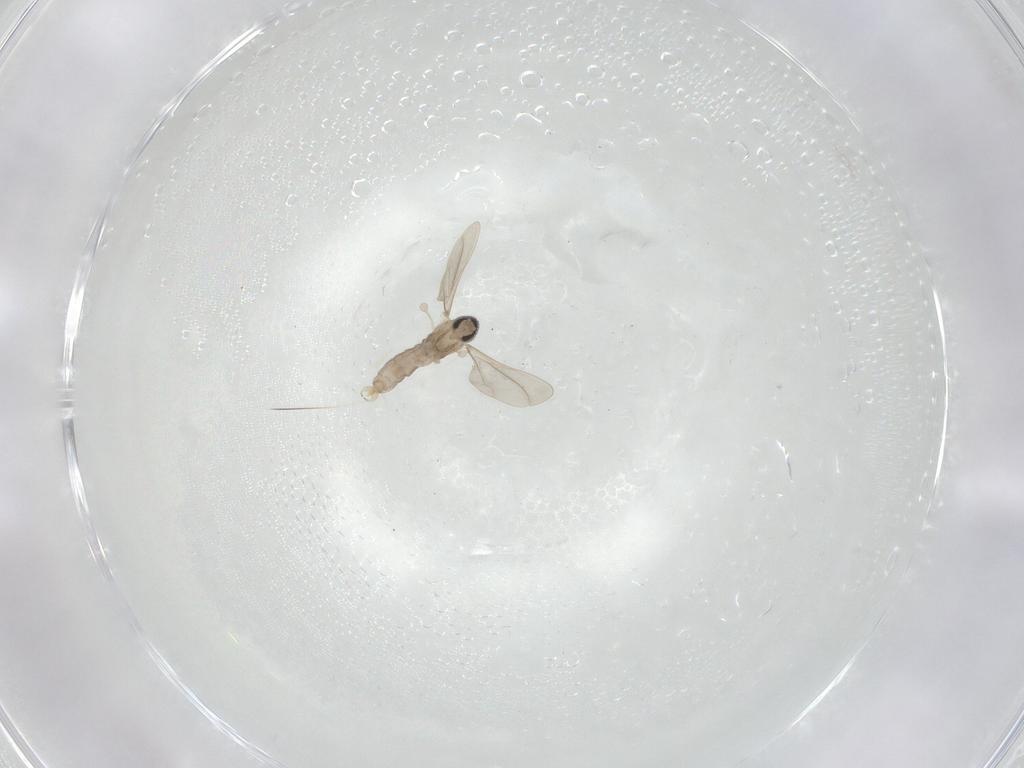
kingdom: Animalia
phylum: Arthropoda
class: Insecta
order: Diptera
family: Cecidomyiidae
